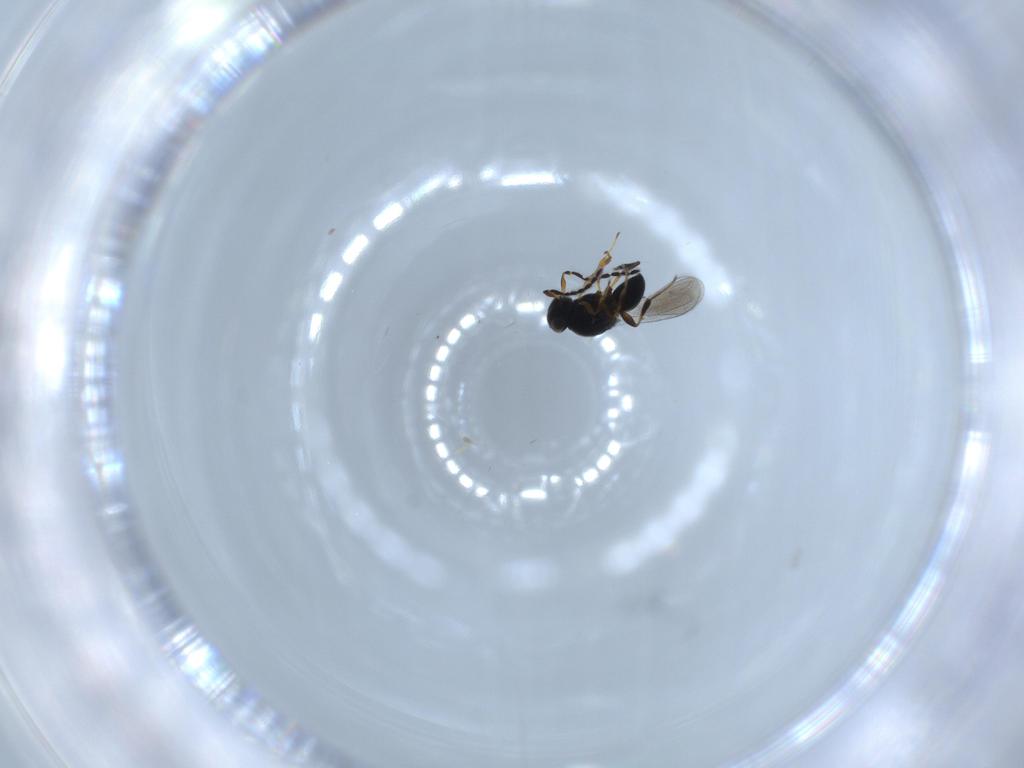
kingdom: Animalia
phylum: Arthropoda
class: Insecta
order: Hymenoptera
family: Platygastridae
